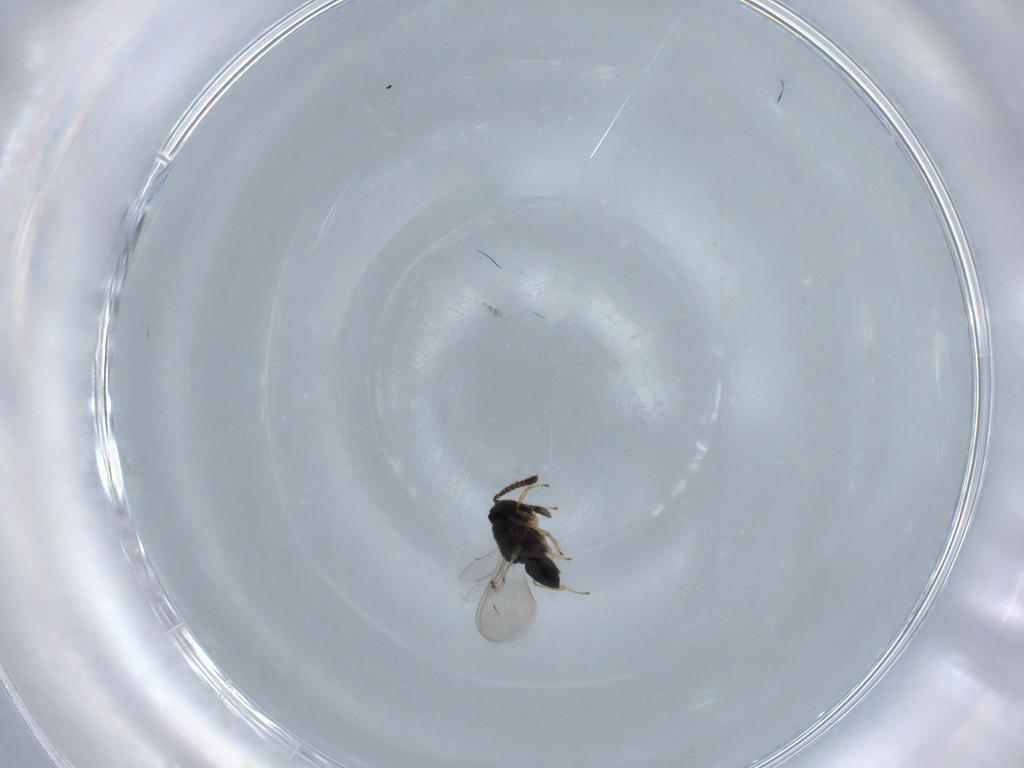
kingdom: Animalia
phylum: Arthropoda
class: Insecta
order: Hymenoptera
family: Encyrtidae
